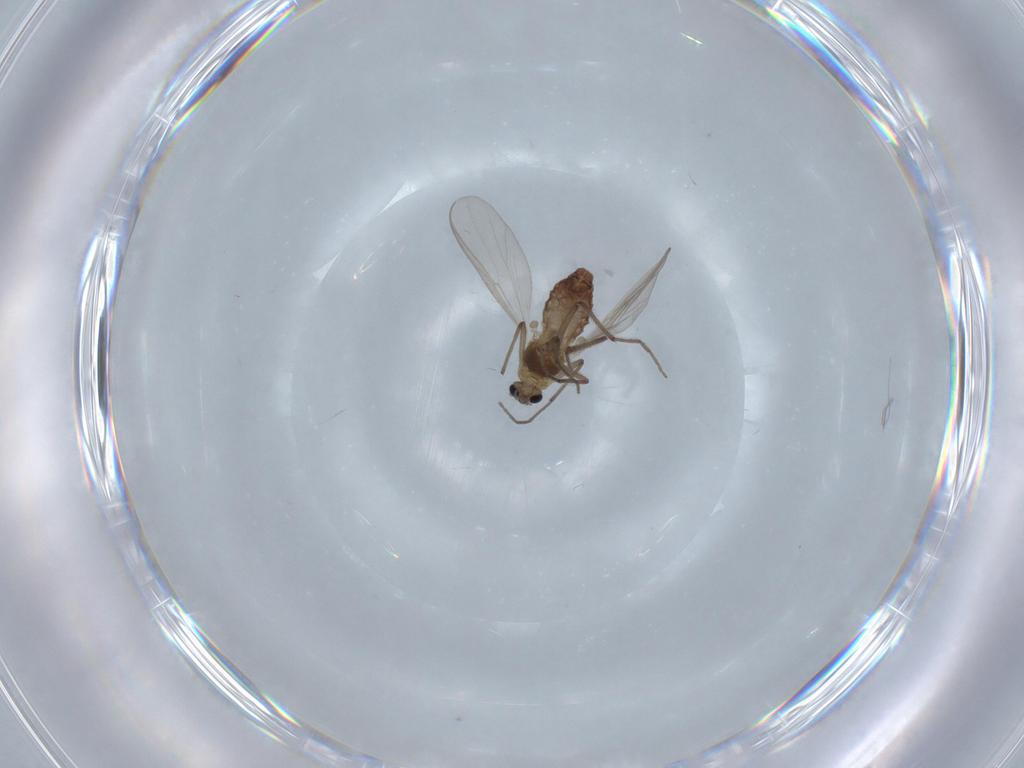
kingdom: Animalia
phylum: Arthropoda
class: Insecta
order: Diptera
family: Chironomidae
